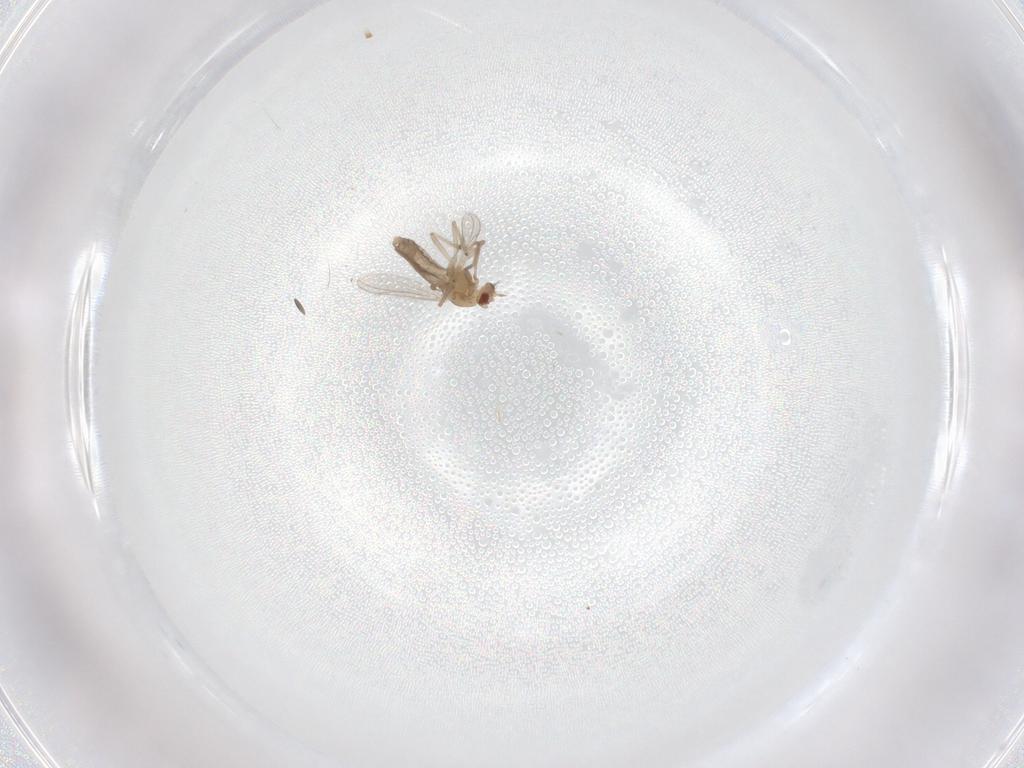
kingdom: Animalia
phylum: Arthropoda
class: Insecta
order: Diptera
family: Chironomidae
